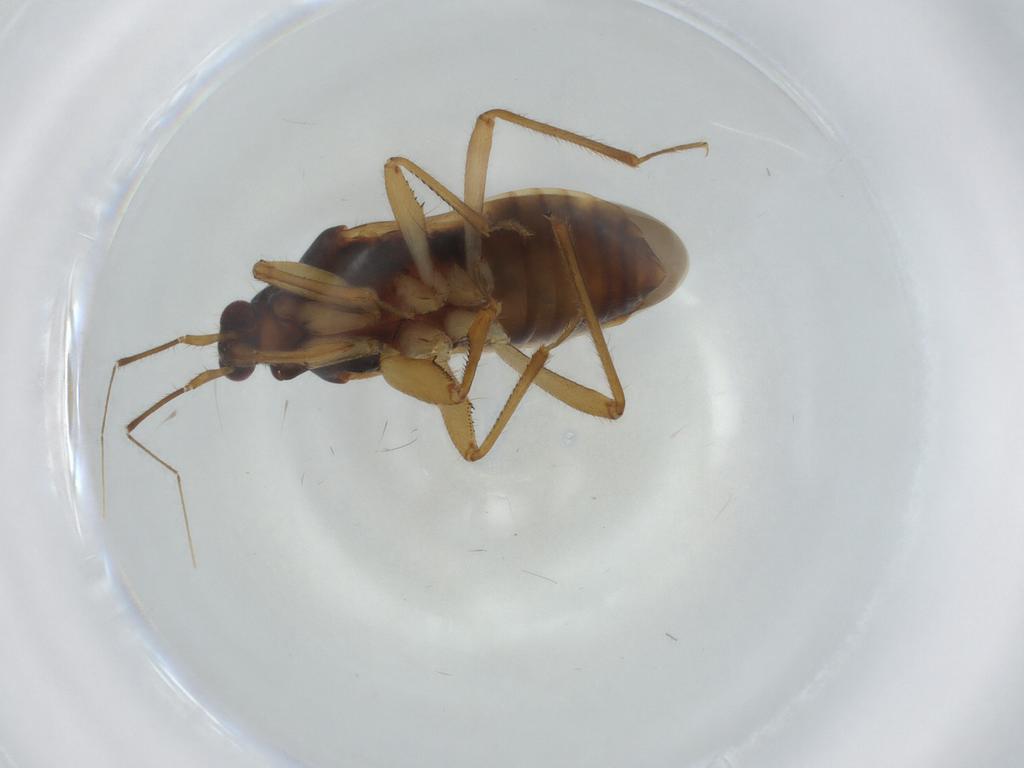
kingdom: Animalia
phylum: Arthropoda
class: Insecta
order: Hemiptera
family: Nabidae
